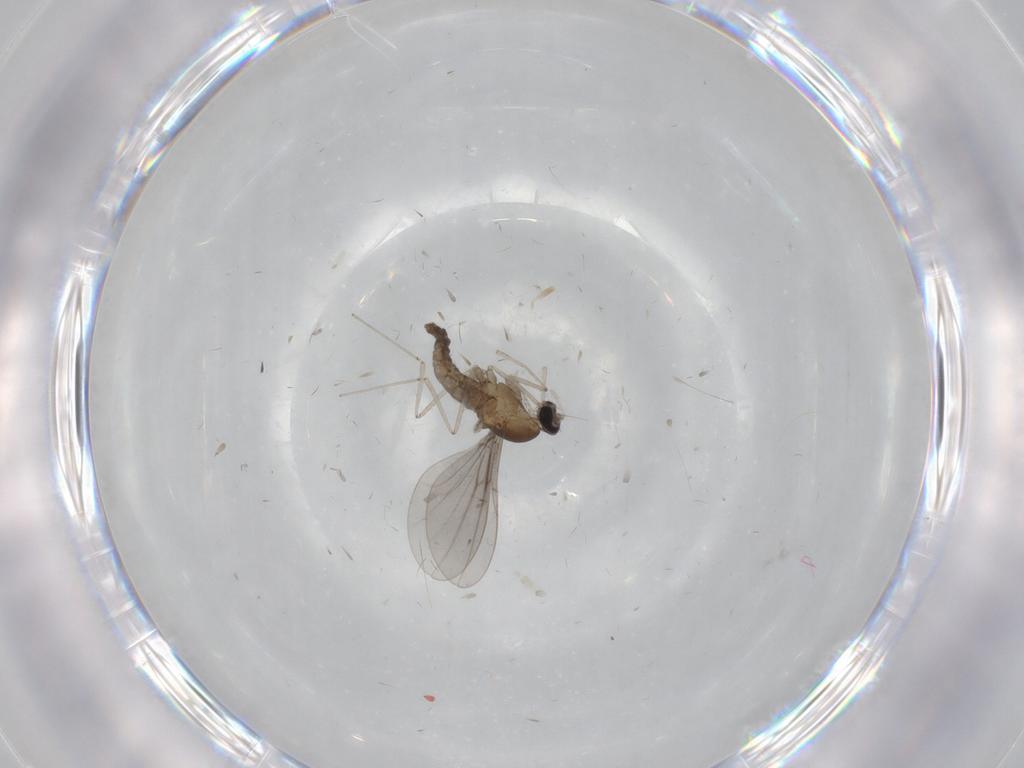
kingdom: Animalia
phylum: Arthropoda
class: Insecta
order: Diptera
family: Cecidomyiidae
